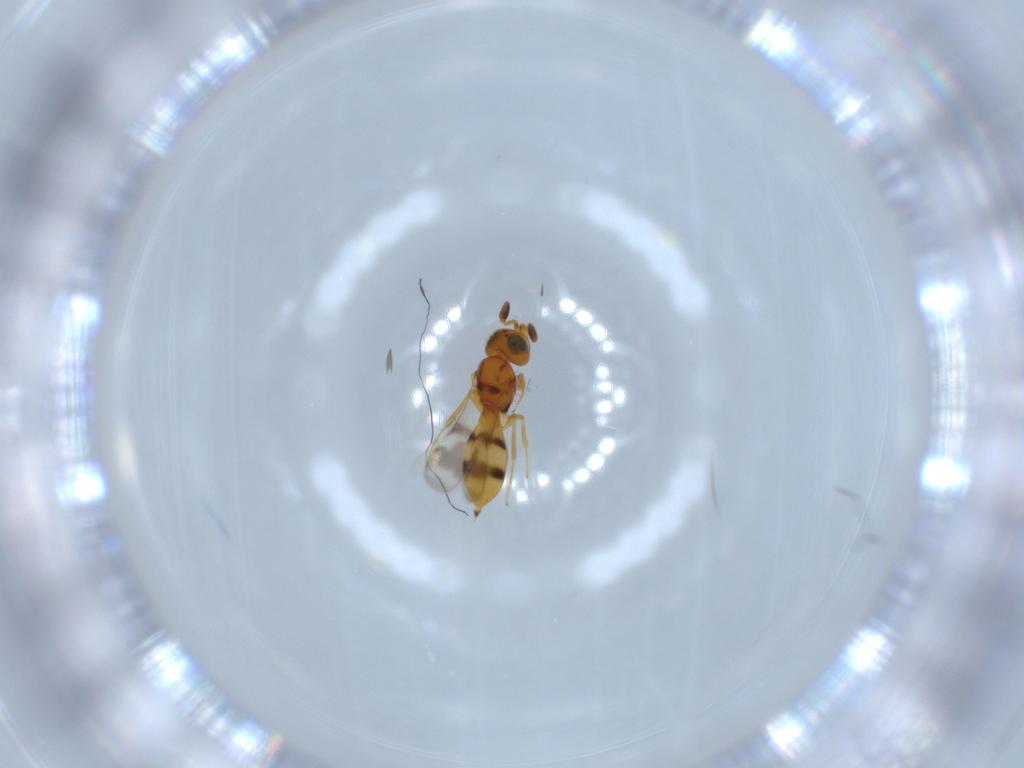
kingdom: Animalia
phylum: Arthropoda
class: Insecta
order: Hymenoptera
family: Scelionidae
